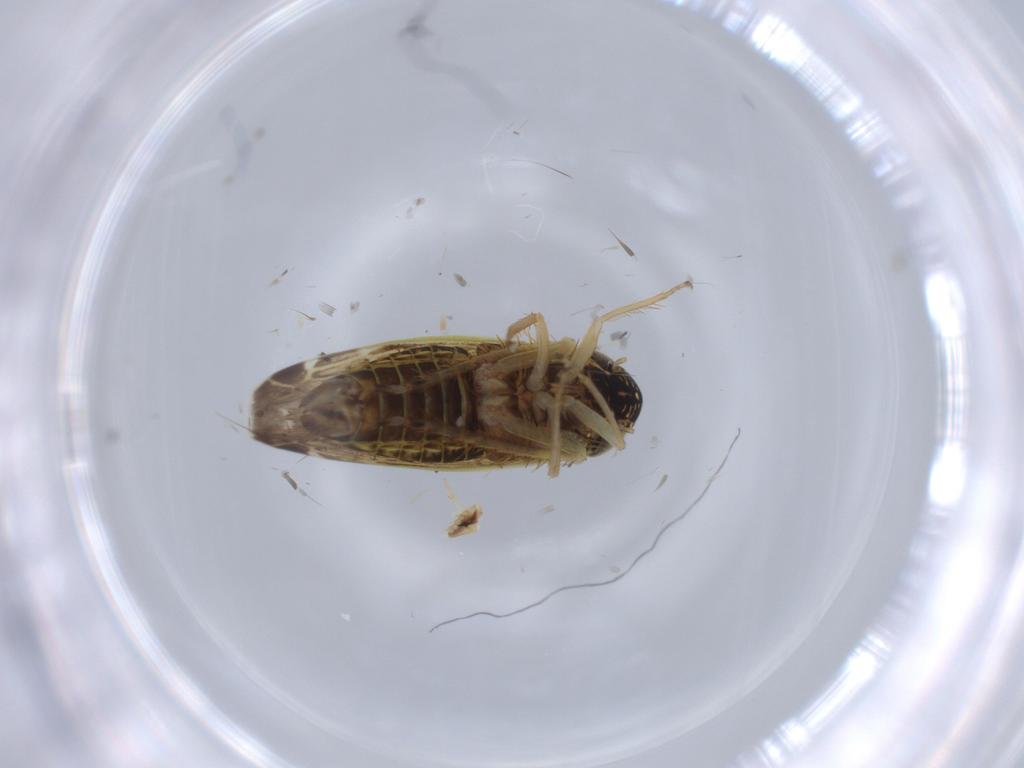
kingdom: Animalia
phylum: Arthropoda
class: Insecta
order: Hemiptera
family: Cicadellidae
